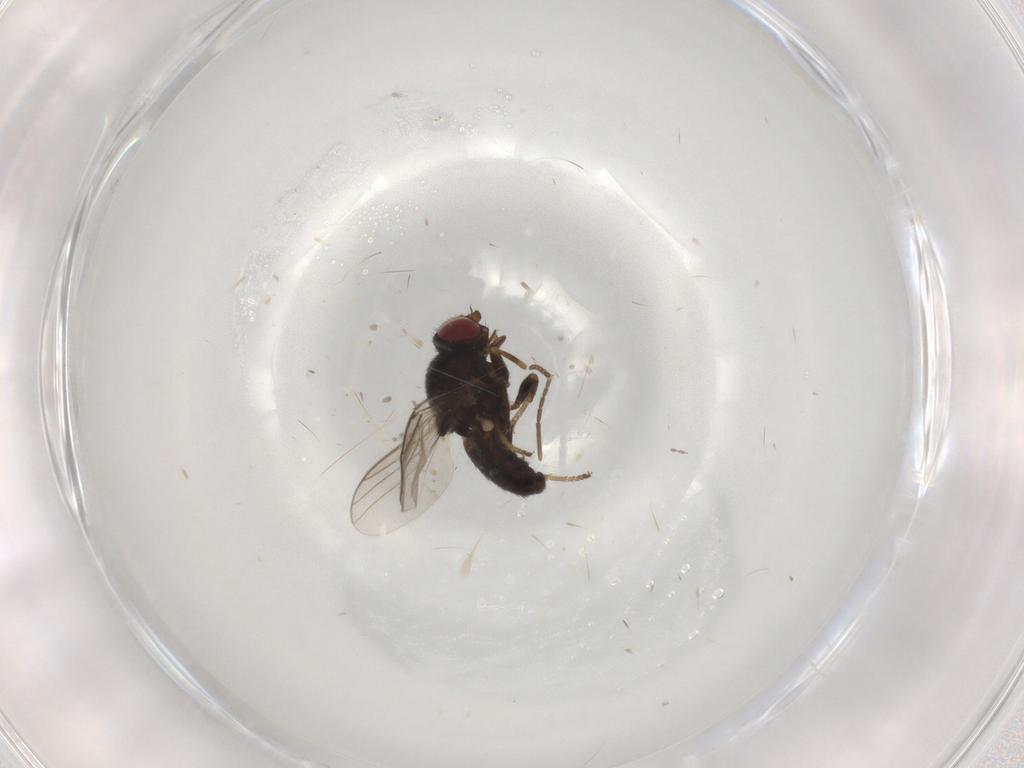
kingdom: Animalia
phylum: Arthropoda
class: Insecta
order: Diptera
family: Chloropidae
